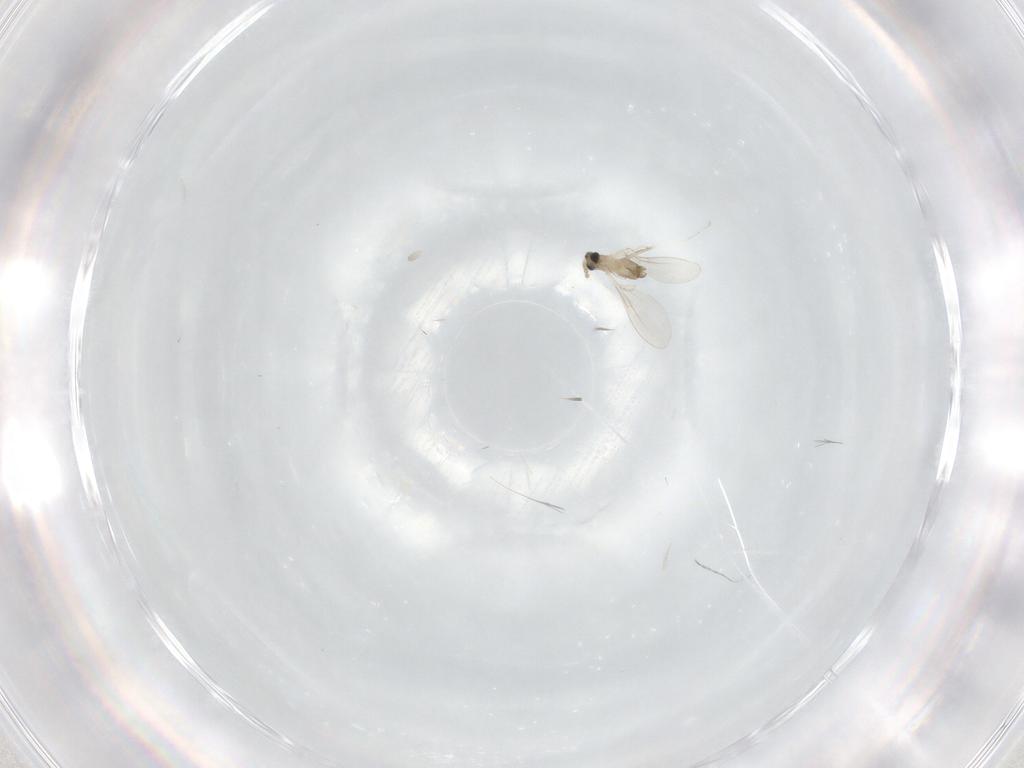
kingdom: Animalia
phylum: Arthropoda
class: Insecta
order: Diptera
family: Cecidomyiidae
